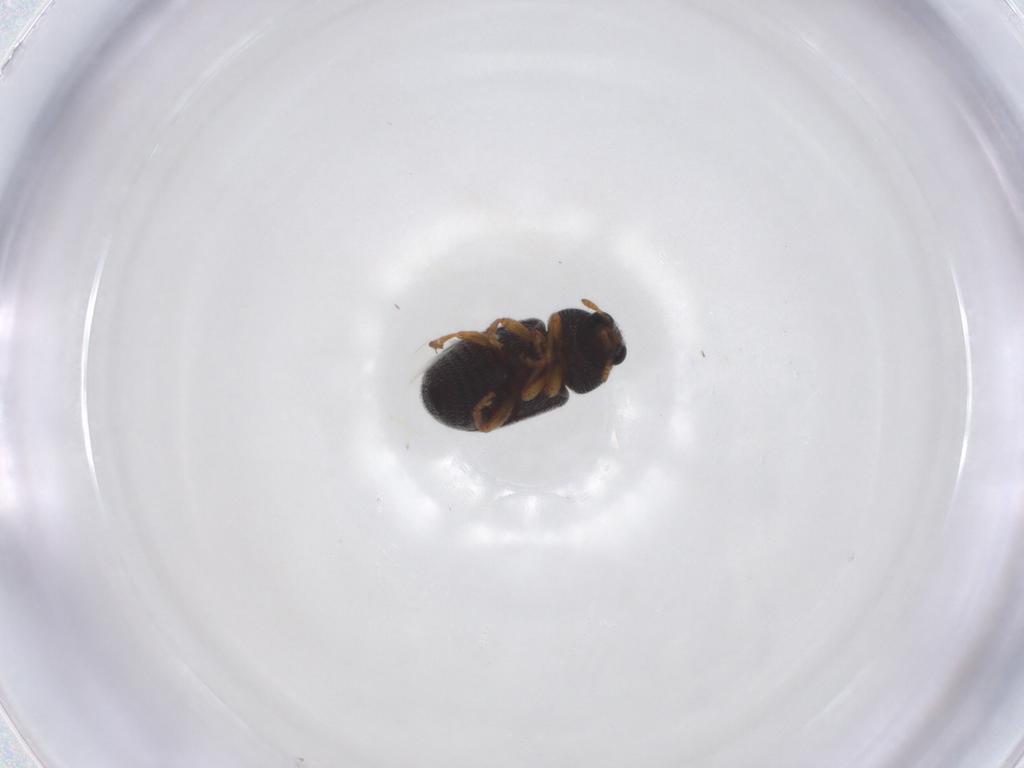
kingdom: Animalia
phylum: Arthropoda
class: Insecta
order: Coleoptera
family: Anthribidae
